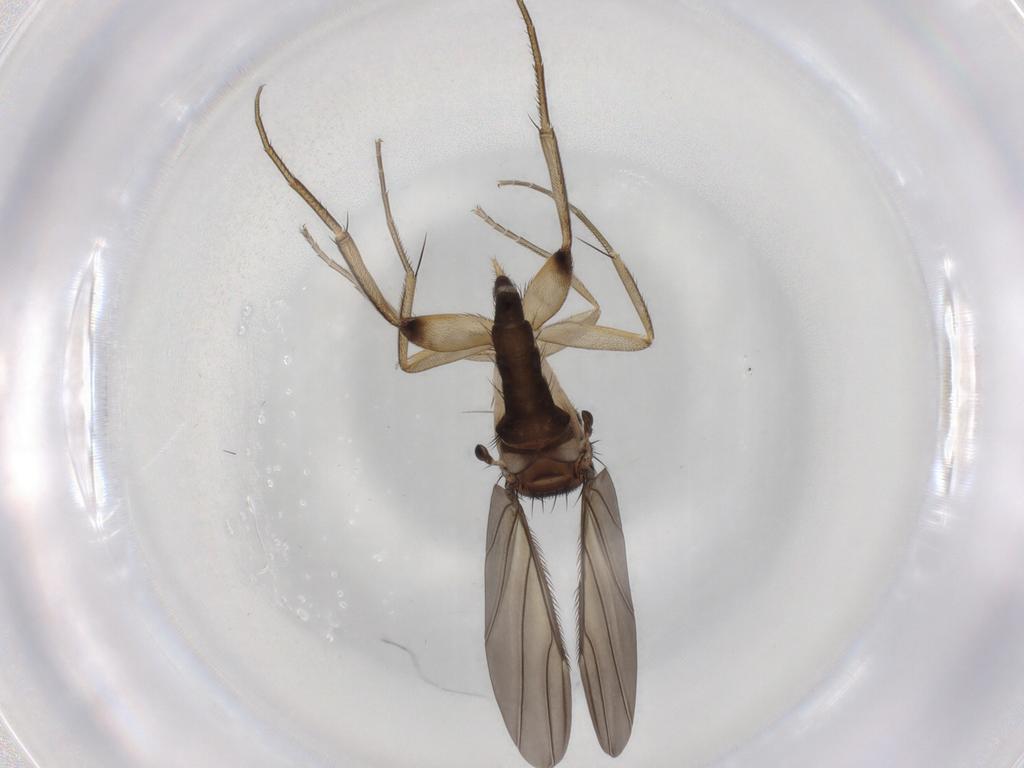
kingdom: Animalia
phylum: Arthropoda
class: Insecta
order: Diptera
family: Phoridae
